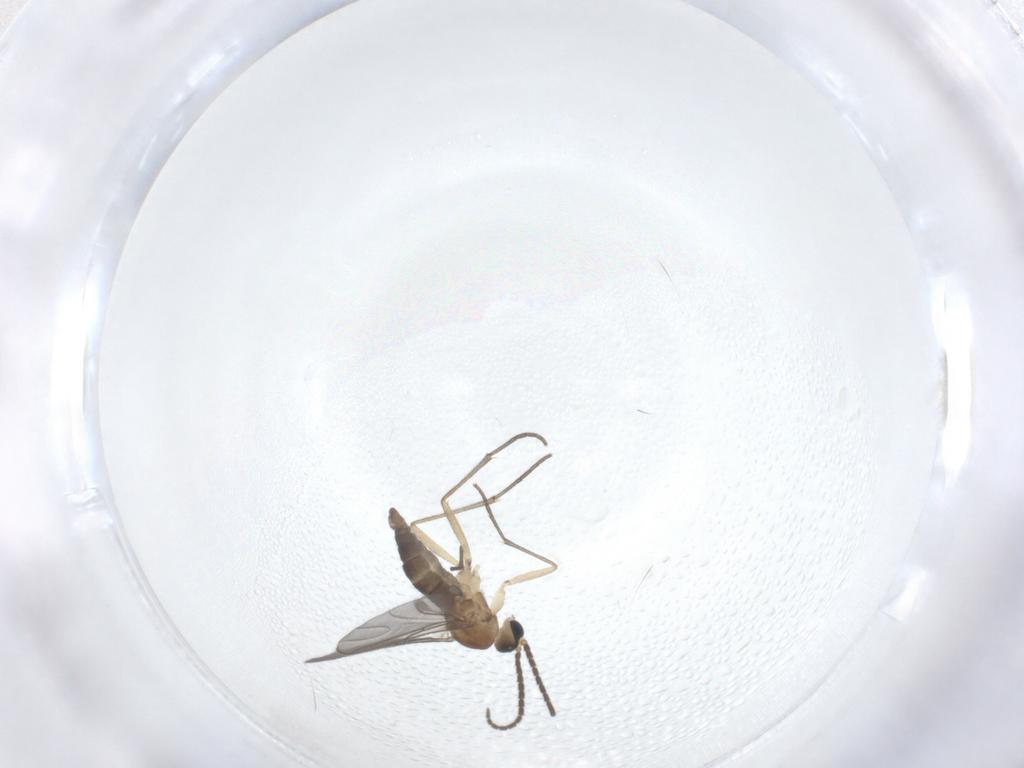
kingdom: Animalia
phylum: Arthropoda
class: Insecta
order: Diptera
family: Sciaridae
